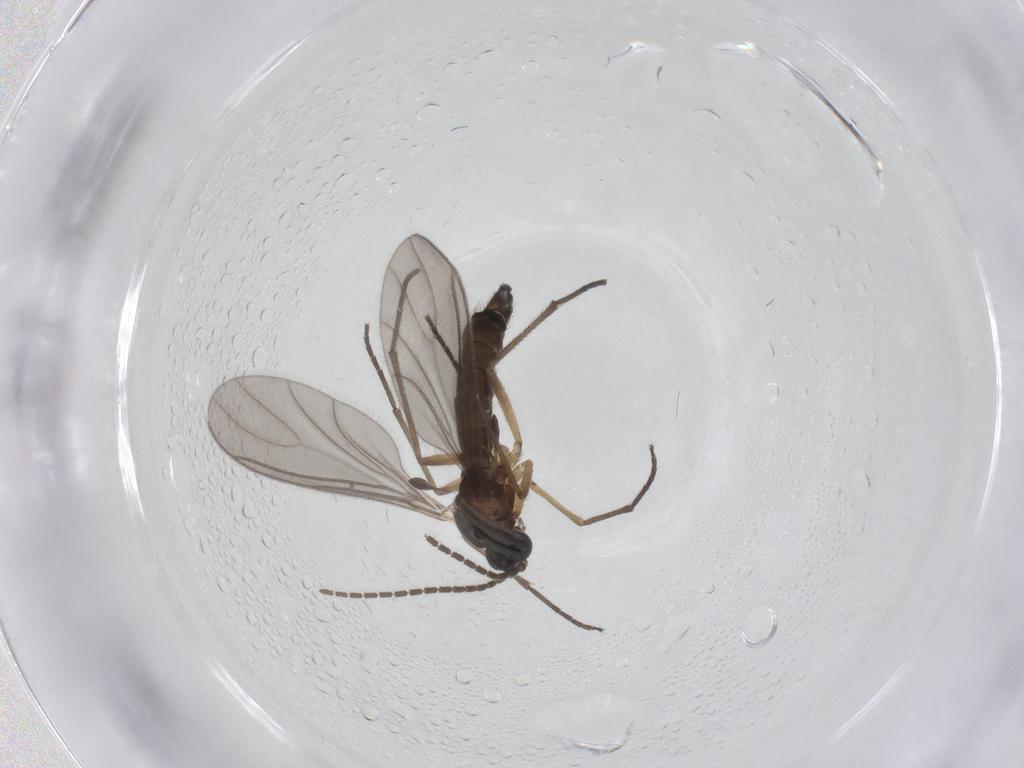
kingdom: Animalia
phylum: Arthropoda
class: Insecta
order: Diptera
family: Sciaridae
